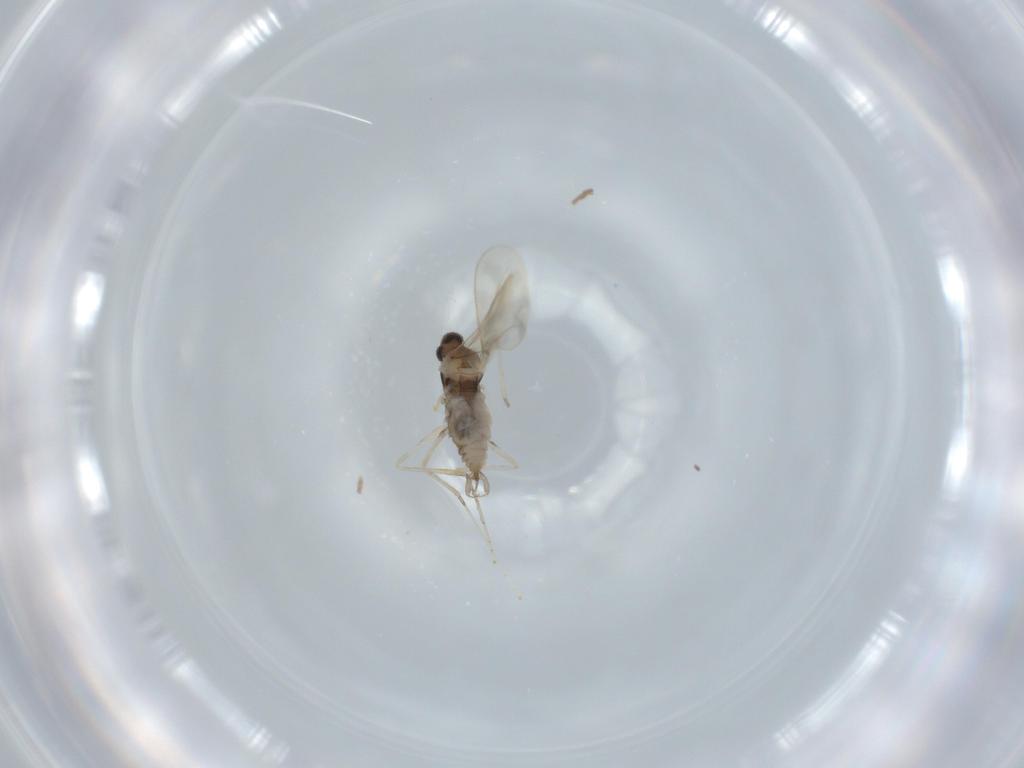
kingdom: Animalia
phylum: Arthropoda
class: Insecta
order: Diptera
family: Cecidomyiidae
